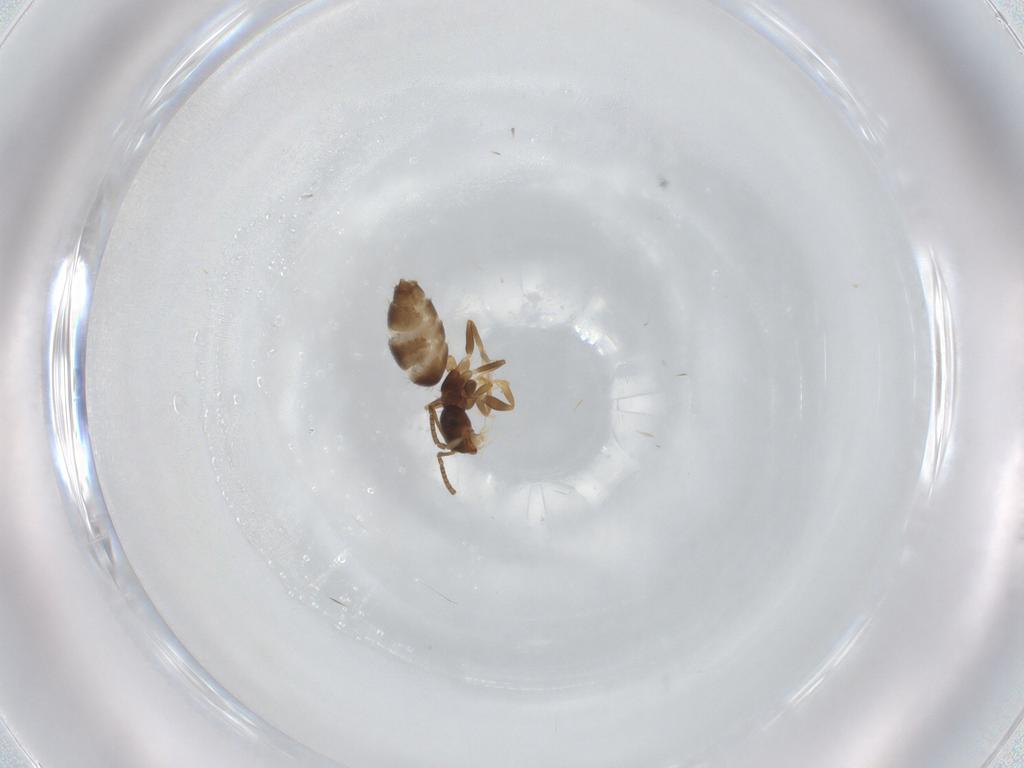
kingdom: Animalia
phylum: Arthropoda
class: Insecta
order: Hymenoptera
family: Formicidae
